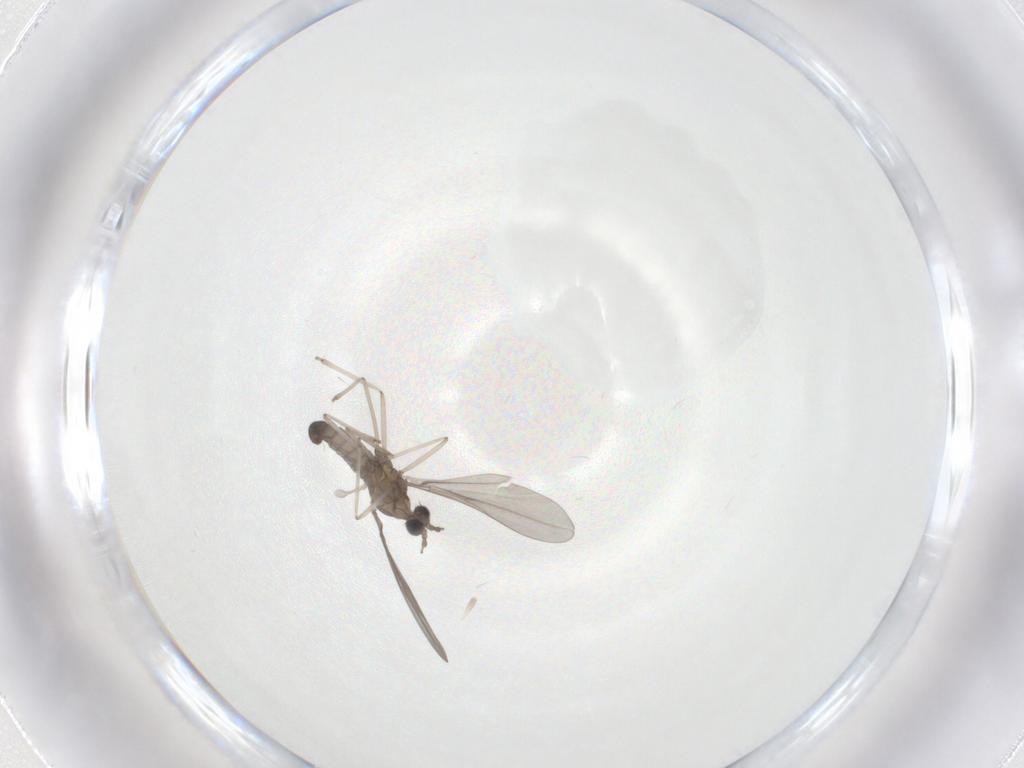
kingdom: Animalia
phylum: Arthropoda
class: Insecta
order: Diptera
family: Cecidomyiidae
